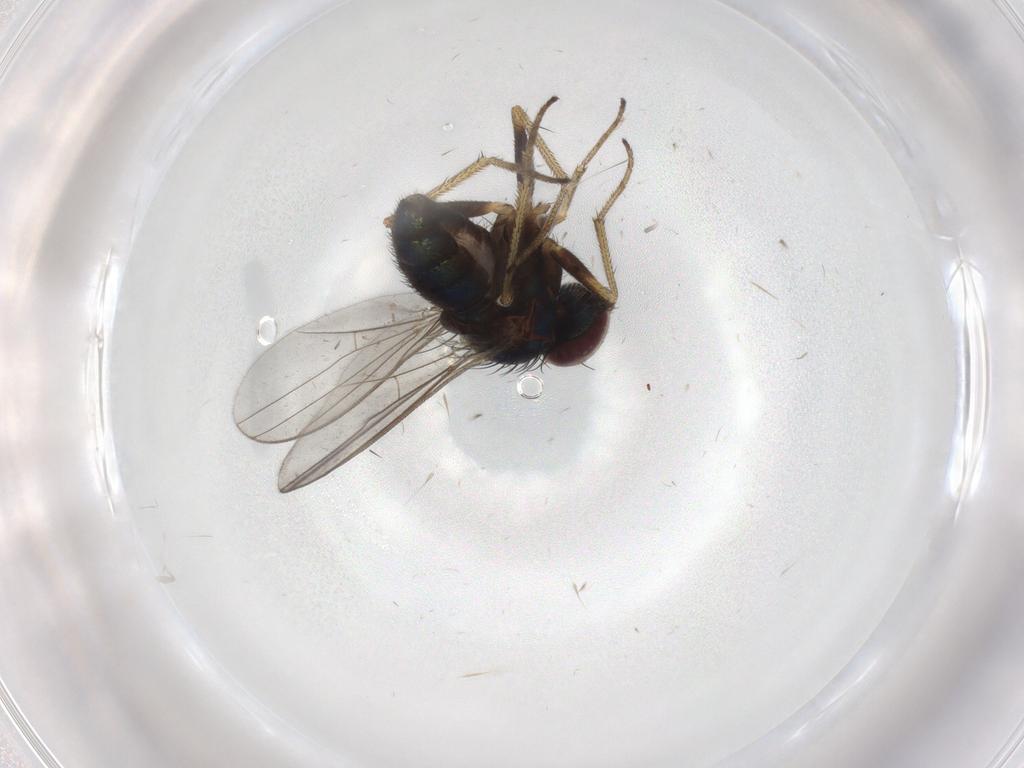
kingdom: Animalia
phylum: Arthropoda
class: Insecta
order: Diptera
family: Cecidomyiidae
